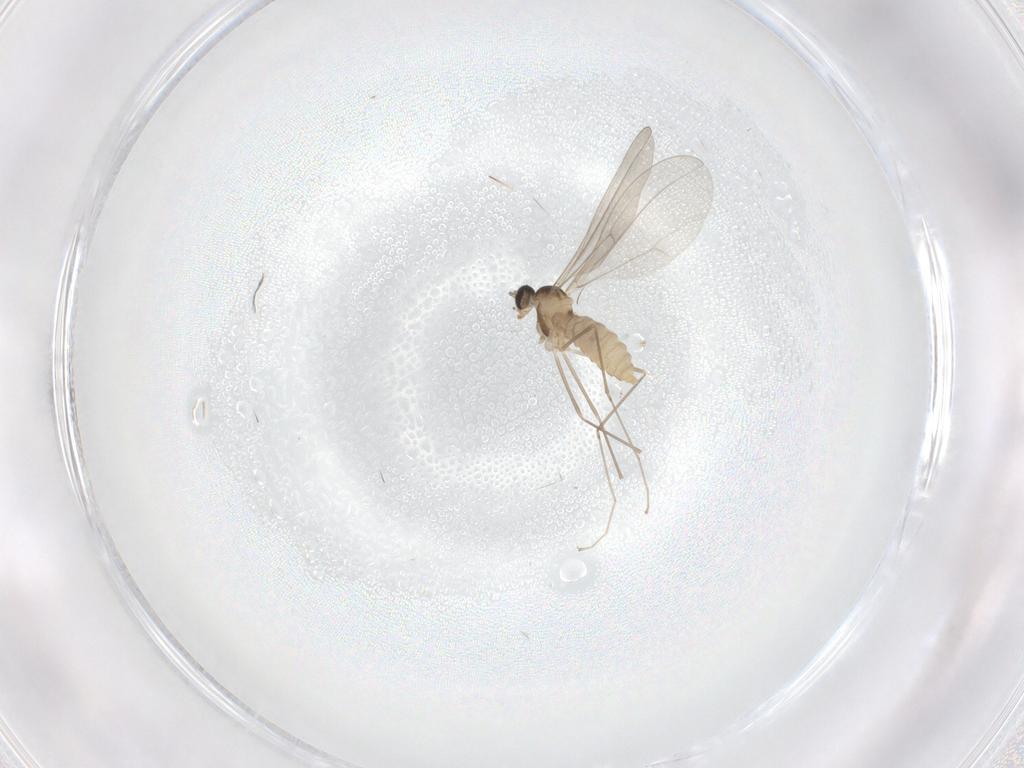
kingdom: Animalia
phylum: Arthropoda
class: Insecta
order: Diptera
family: Cecidomyiidae
